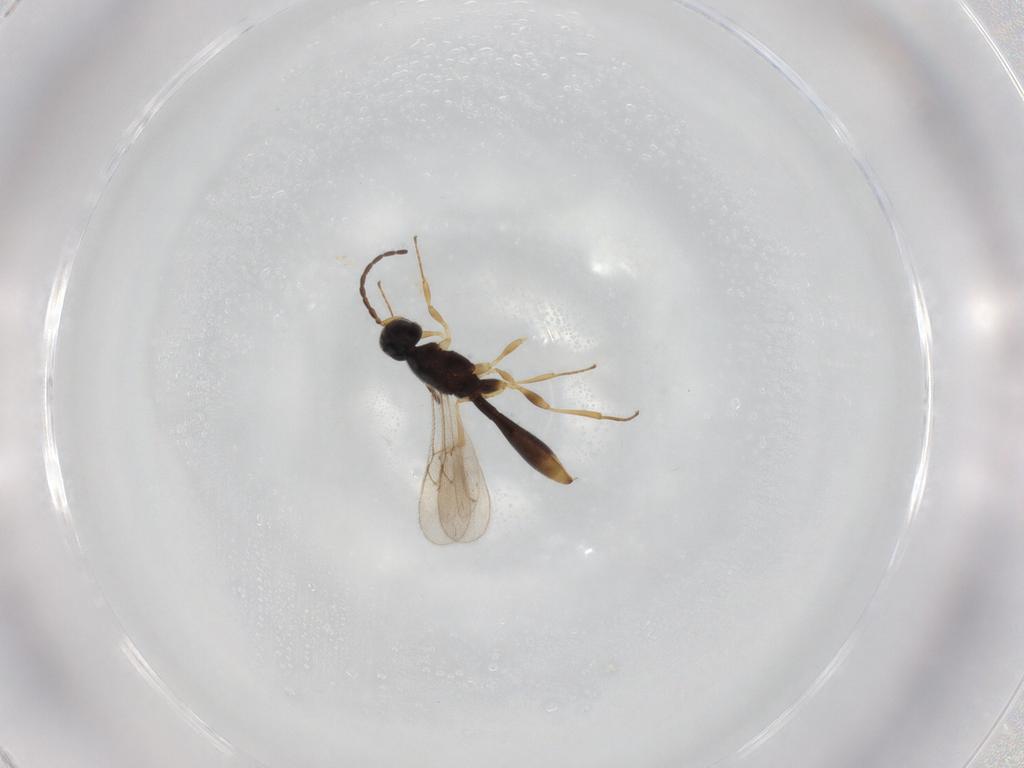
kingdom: Animalia
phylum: Arthropoda
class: Insecta
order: Hymenoptera
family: Scelionidae
